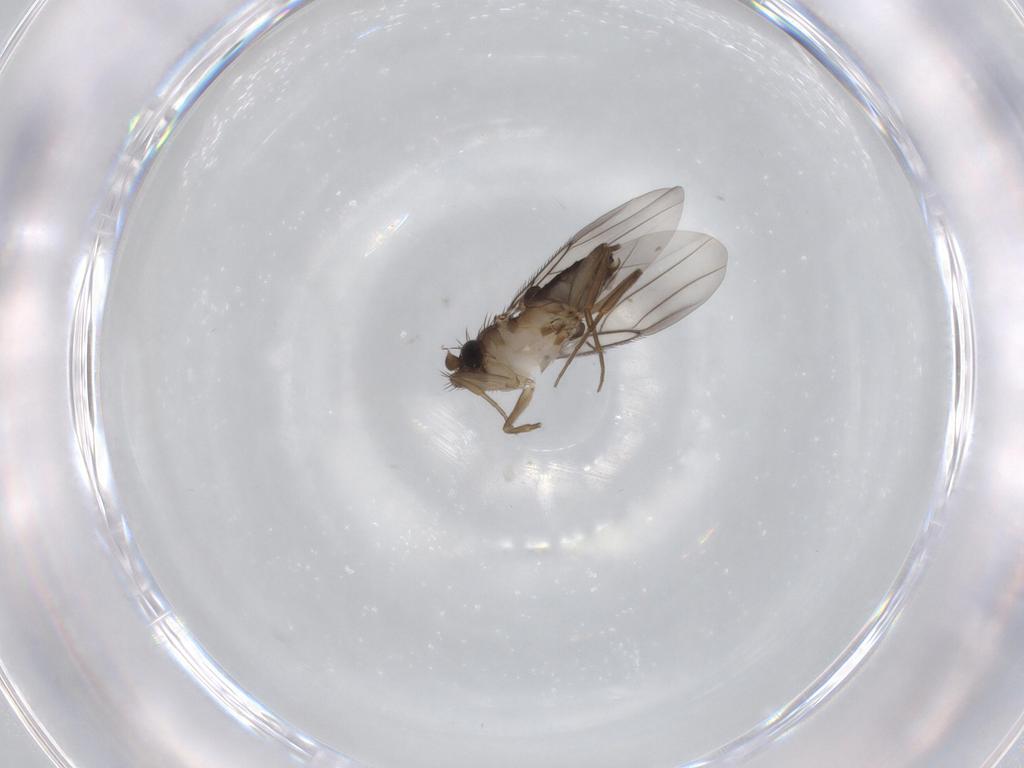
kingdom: Animalia
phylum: Arthropoda
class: Insecta
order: Diptera
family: Phoridae
